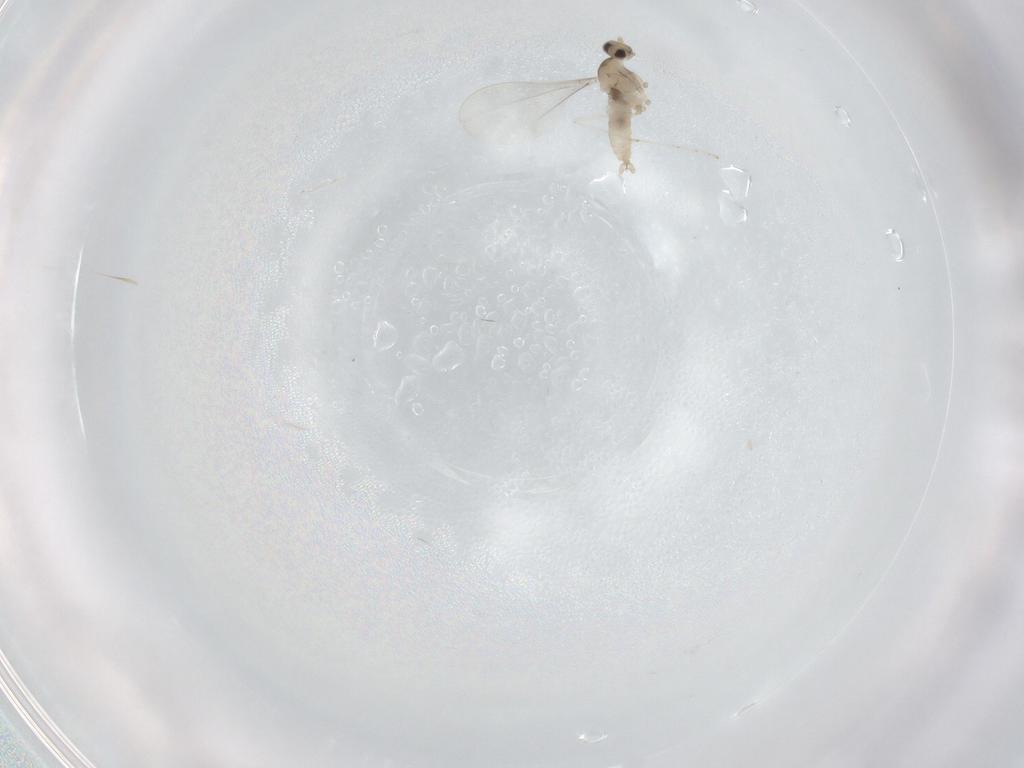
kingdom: Animalia
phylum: Arthropoda
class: Insecta
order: Diptera
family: Cecidomyiidae
